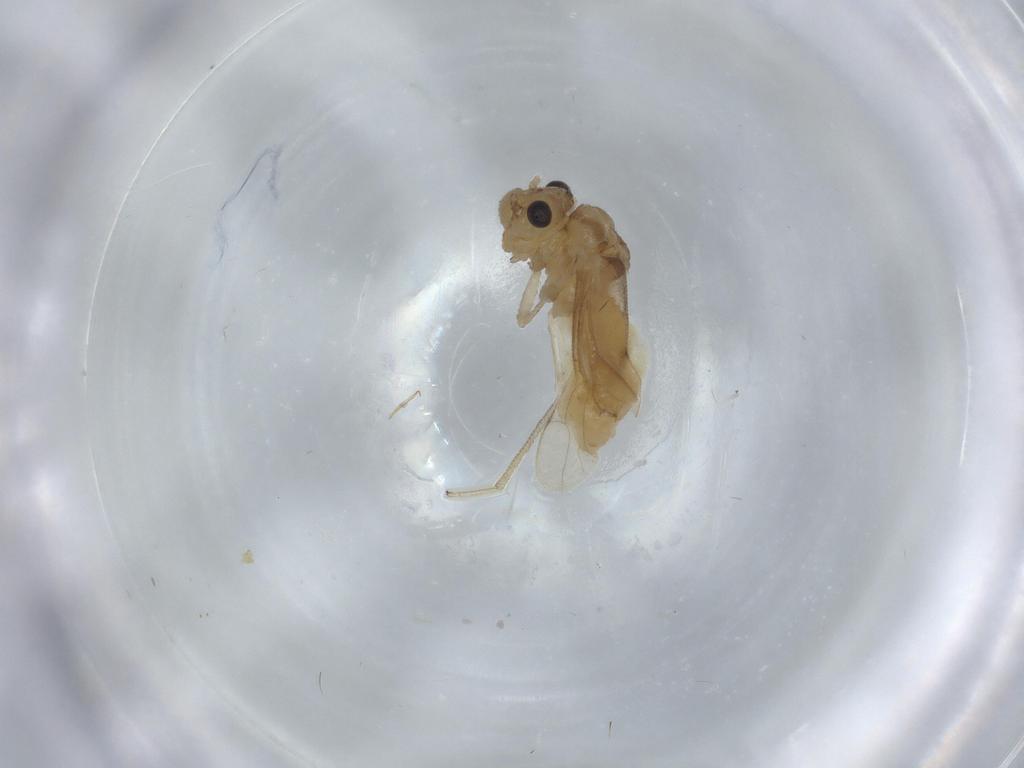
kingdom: Animalia
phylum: Arthropoda
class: Insecta
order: Psocodea
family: Caeciliusidae
